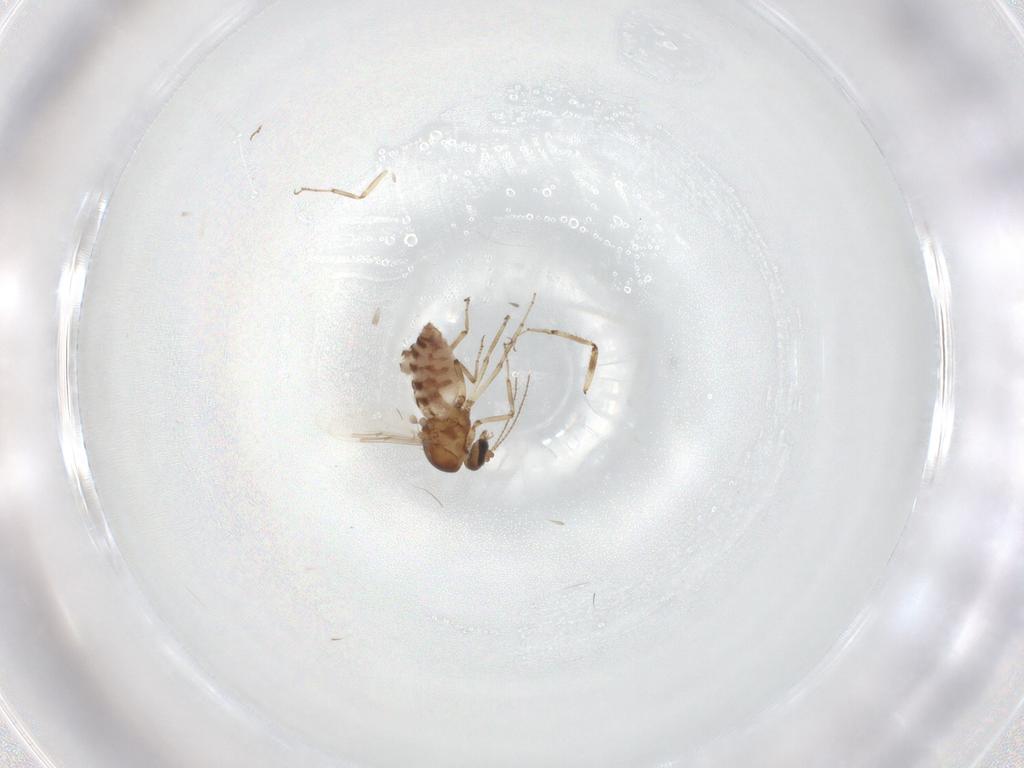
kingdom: Animalia
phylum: Arthropoda
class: Insecta
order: Diptera
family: Ceratopogonidae
